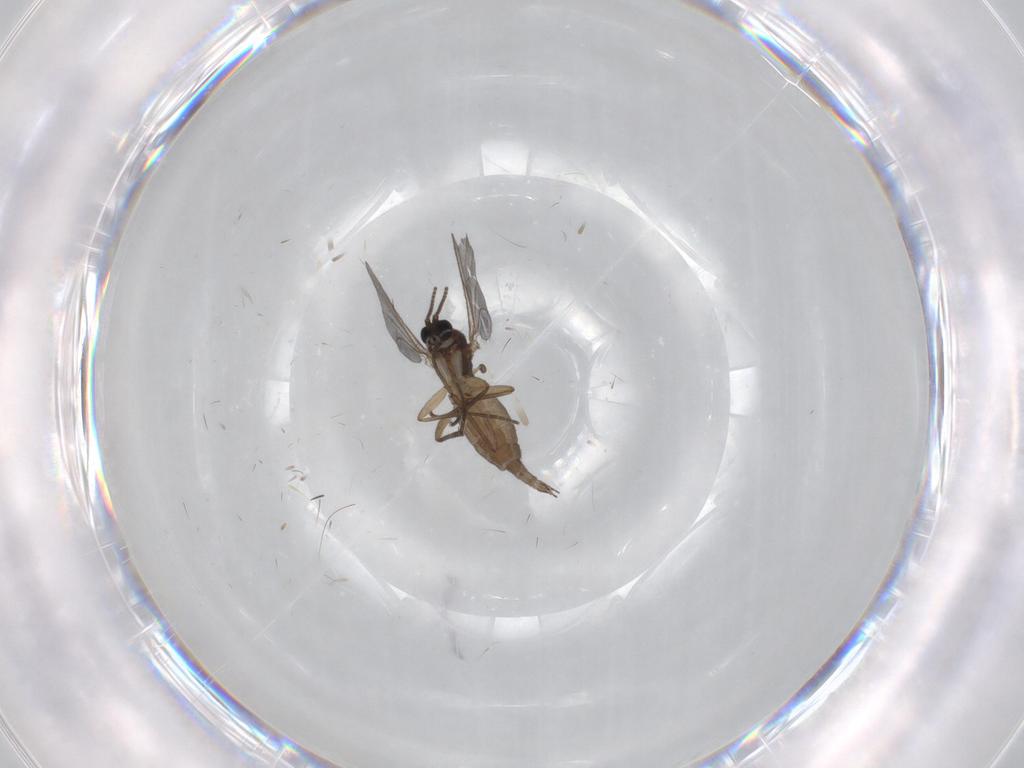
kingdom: Animalia
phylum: Arthropoda
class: Insecta
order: Diptera
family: Sciaridae
